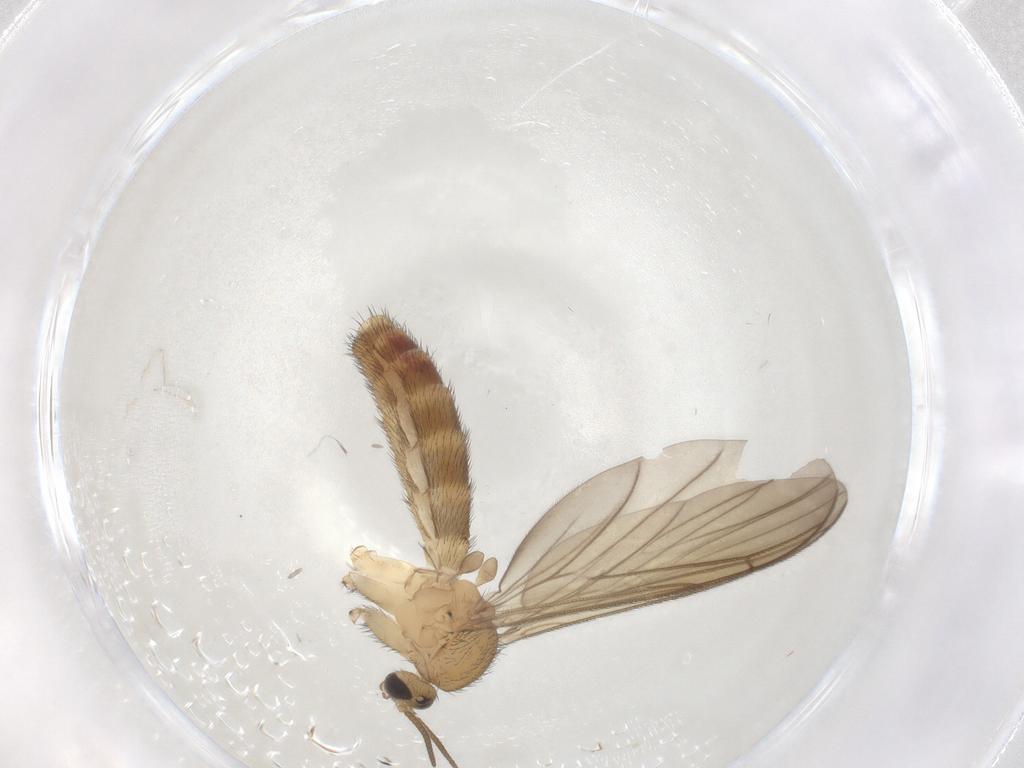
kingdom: Animalia
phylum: Arthropoda
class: Insecta
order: Diptera
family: Keroplatidae
